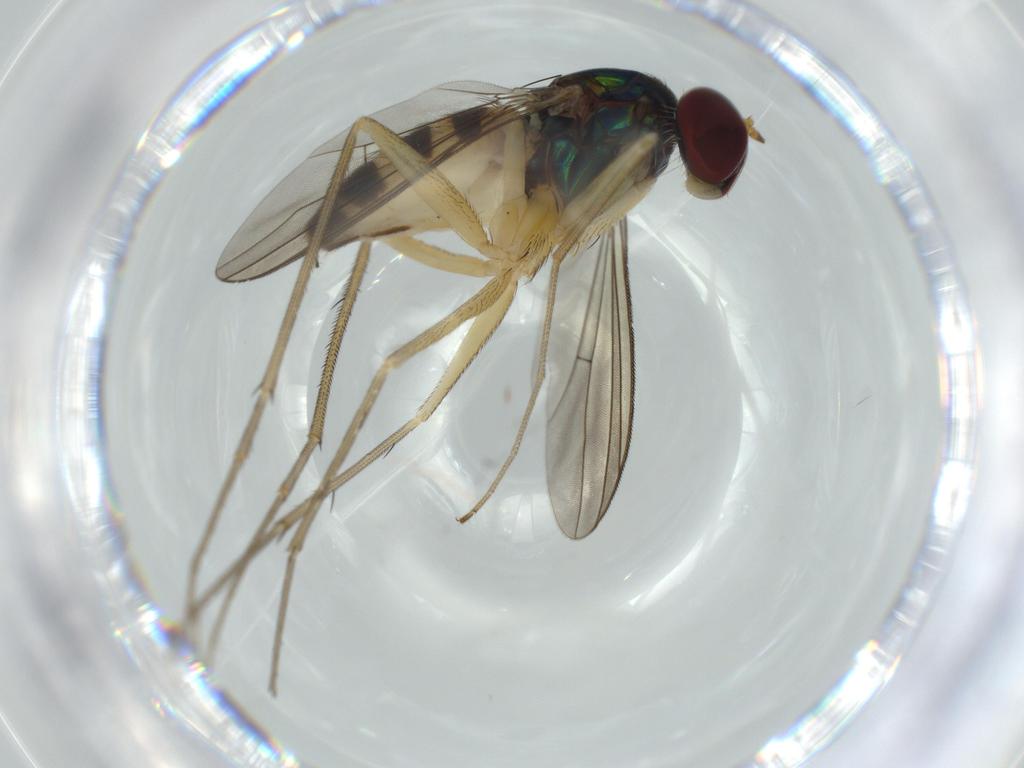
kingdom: Animalia
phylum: Arthropoda
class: Insecta
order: Diptera
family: Dolichopodidae
